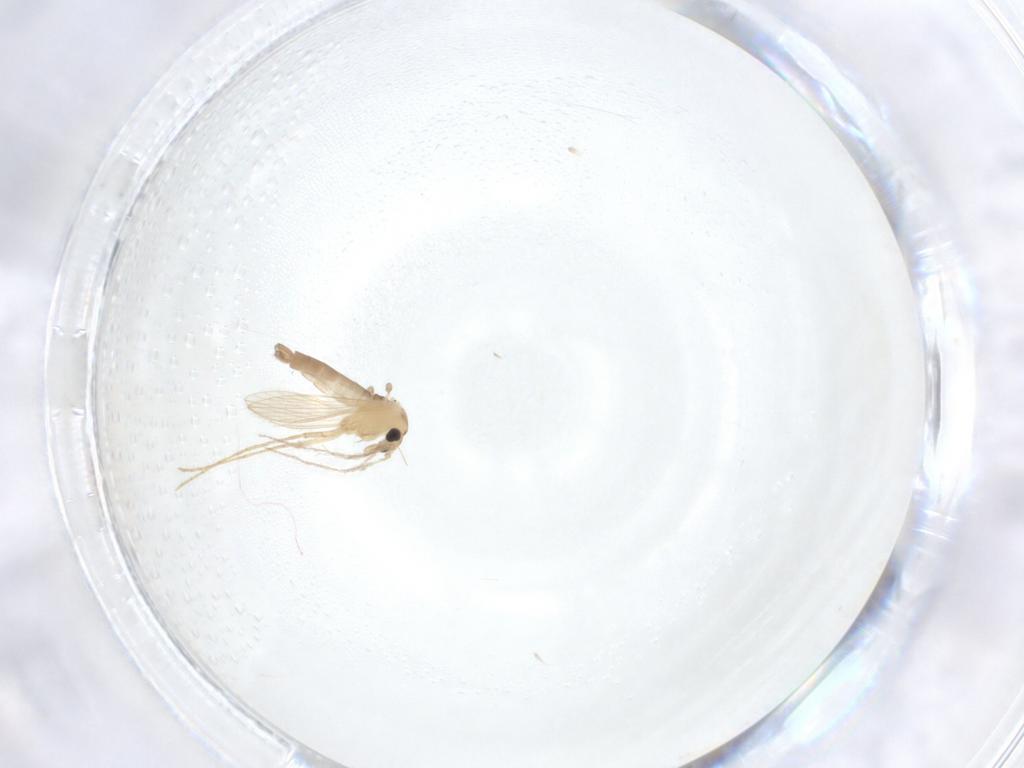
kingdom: Animalia
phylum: Arthropoda
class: Insecta
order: Diptera
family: Psychodidae
